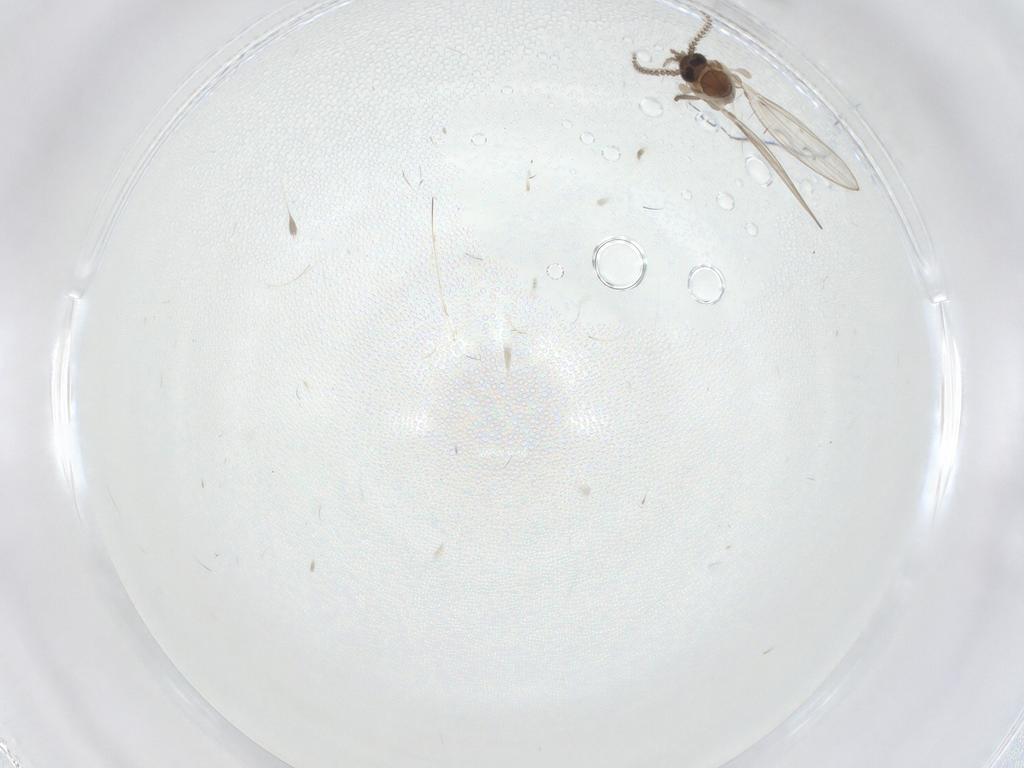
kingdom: Animalia
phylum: Arthropoda
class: Insecta
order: Diptera
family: Psychodidae
